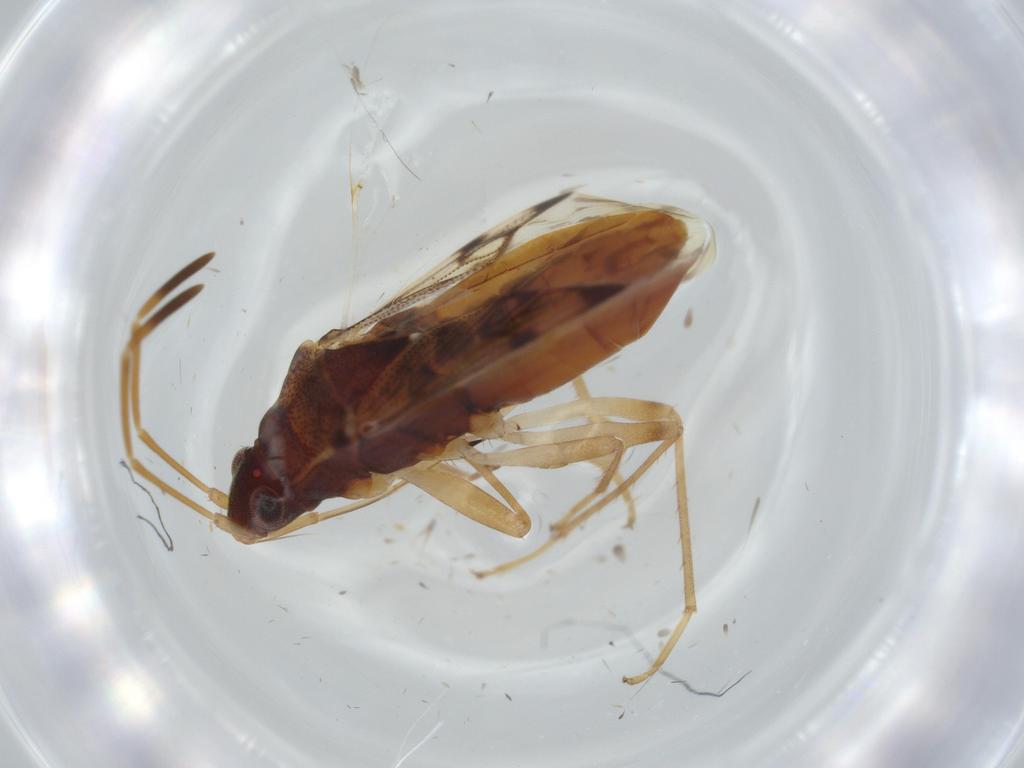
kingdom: Animalia
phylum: Arthropoda
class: Insecta
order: Hemiptera
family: Rhyparochromidae
